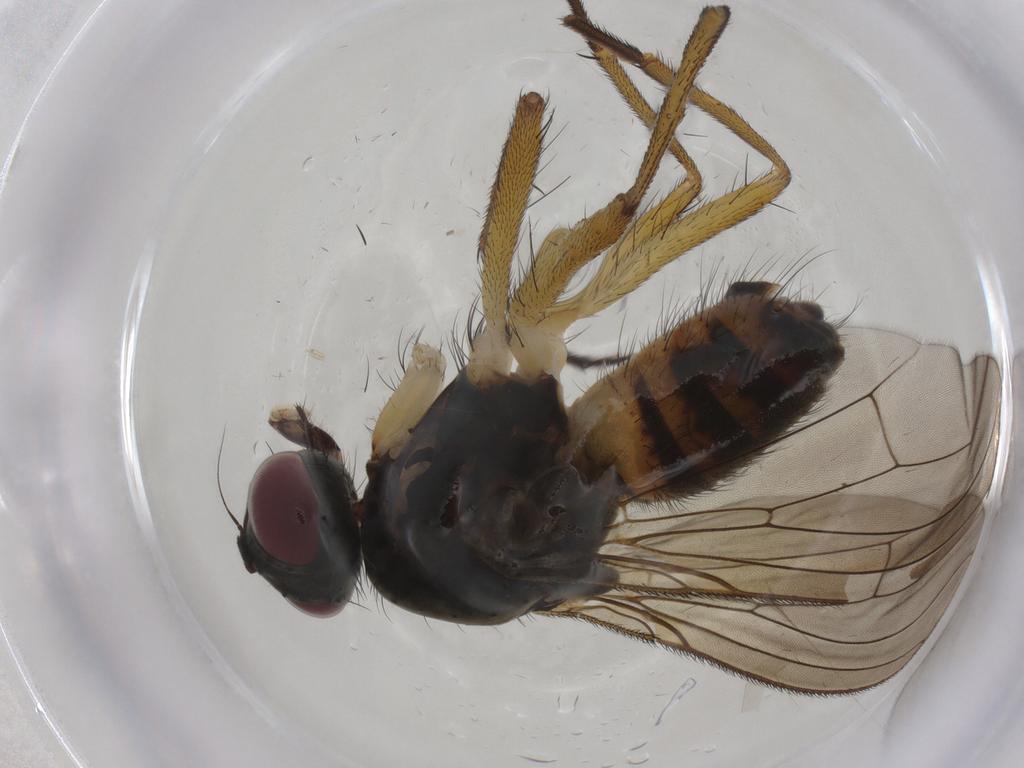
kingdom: Animalia
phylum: Arthropoda
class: Insecta
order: Diptera
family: Muscidae
